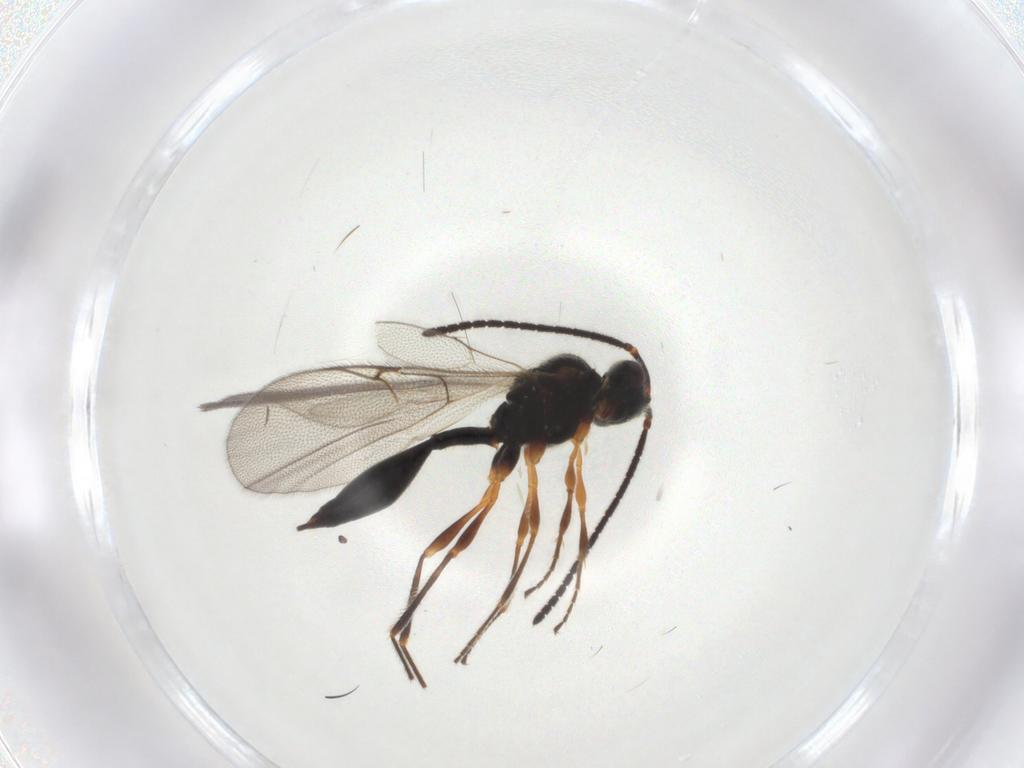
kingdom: Animalia
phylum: Arthropoda
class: Insecta
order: Hymenoptera
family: Diapriidae
